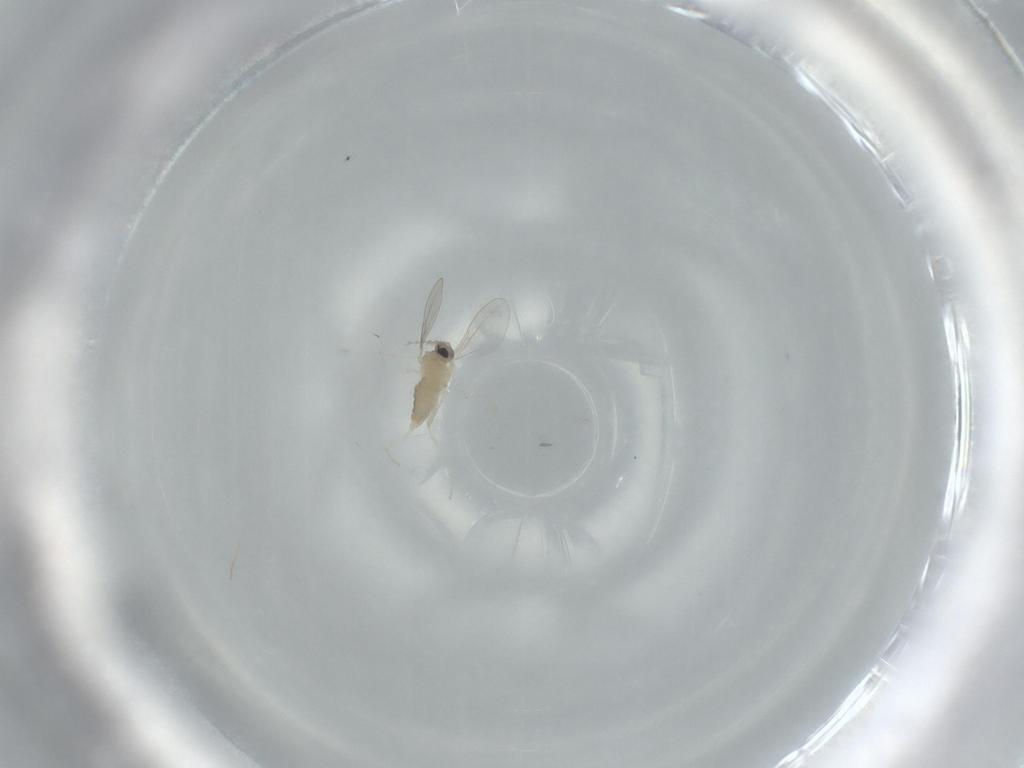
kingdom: Animalia
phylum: Arthropoda
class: Insecta
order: Diptera
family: Cecidomyiidae
